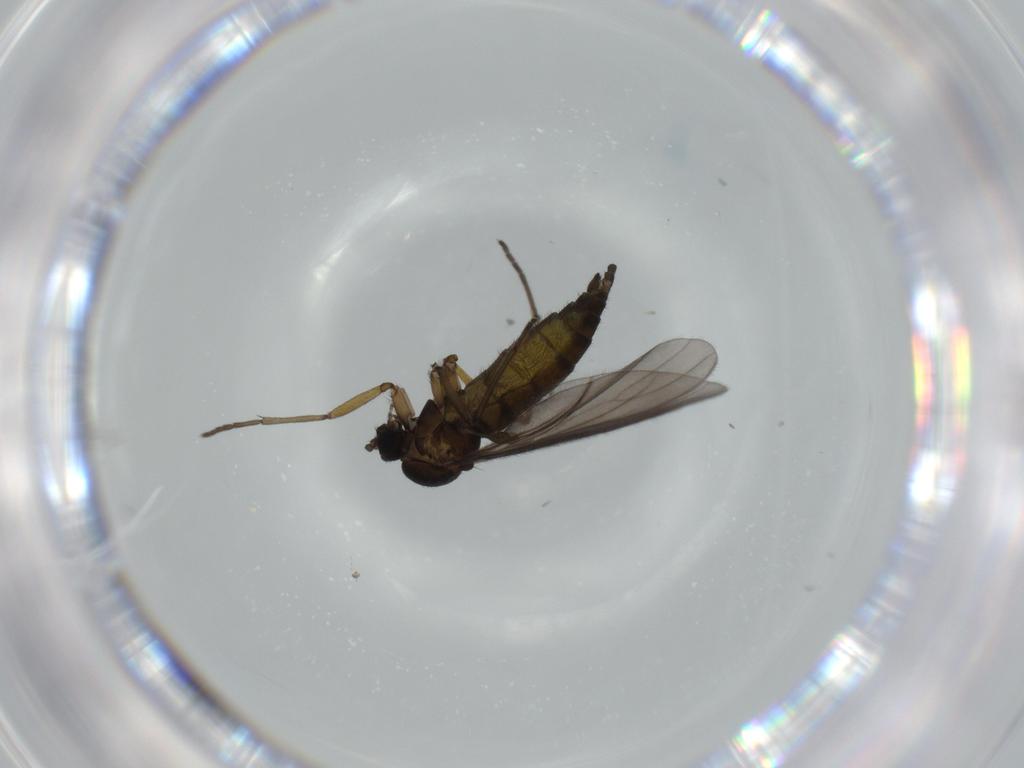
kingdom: Animalia
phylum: Arthropoda
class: Insecta
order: Diptera
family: Sciaridae
